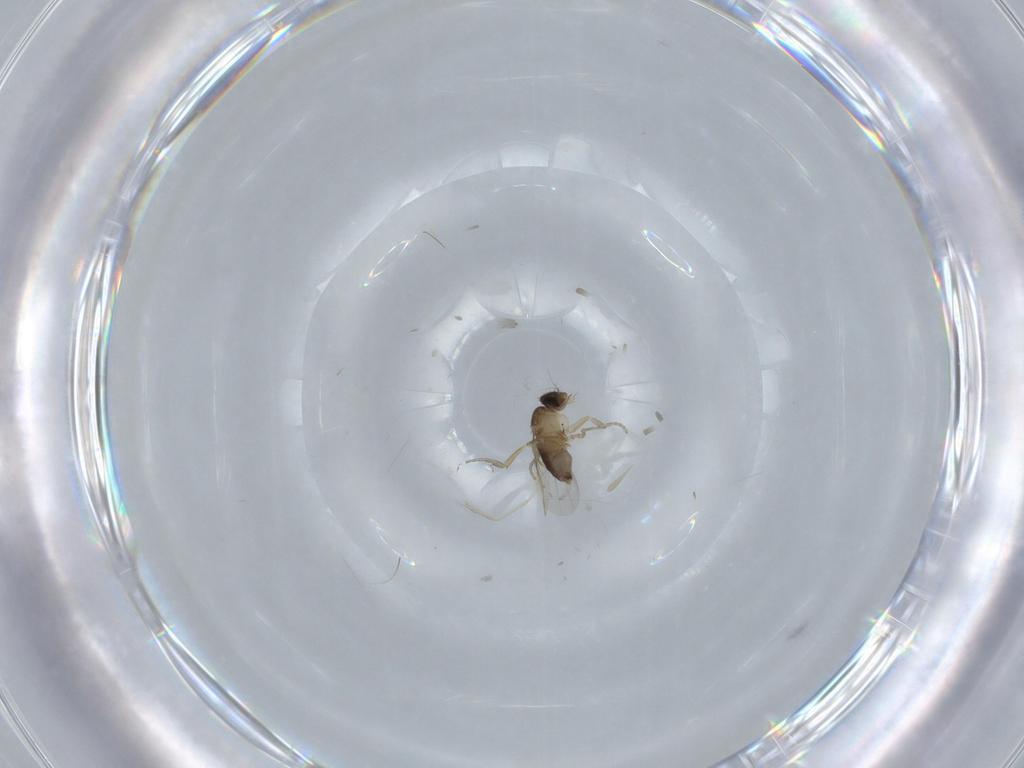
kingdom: Animalia
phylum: Arthropoda
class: Insecta
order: Diptera
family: Phoridae
